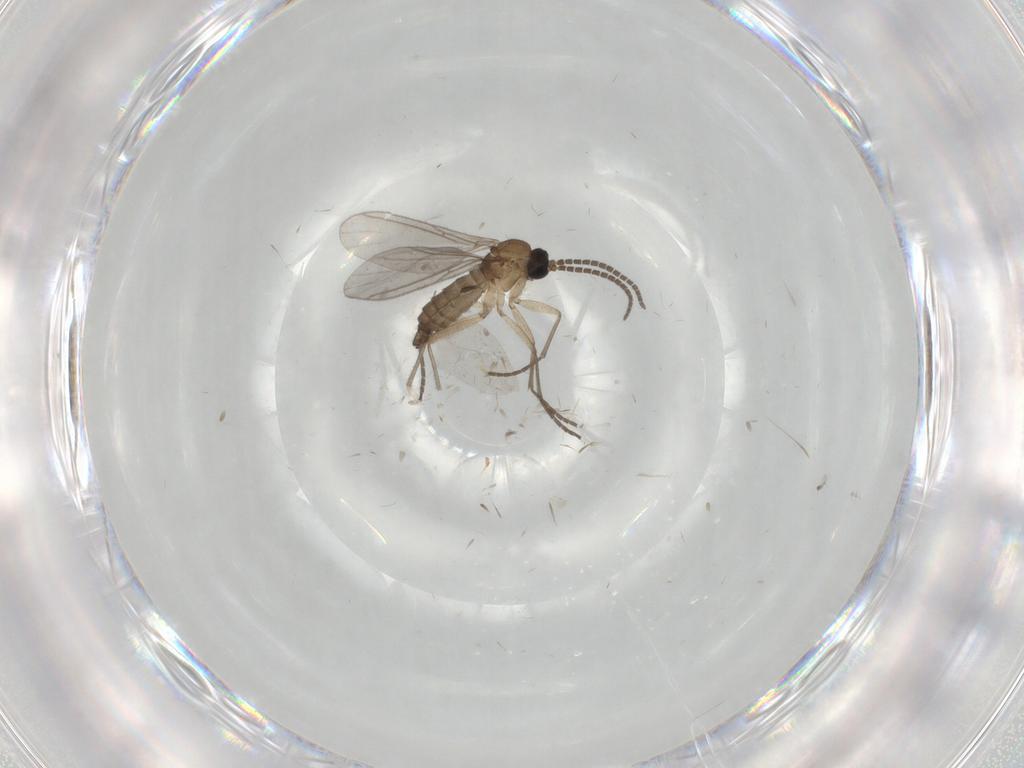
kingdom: Animalia
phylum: Arthropoda
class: Insecta
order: Diptera
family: Sciaridae
